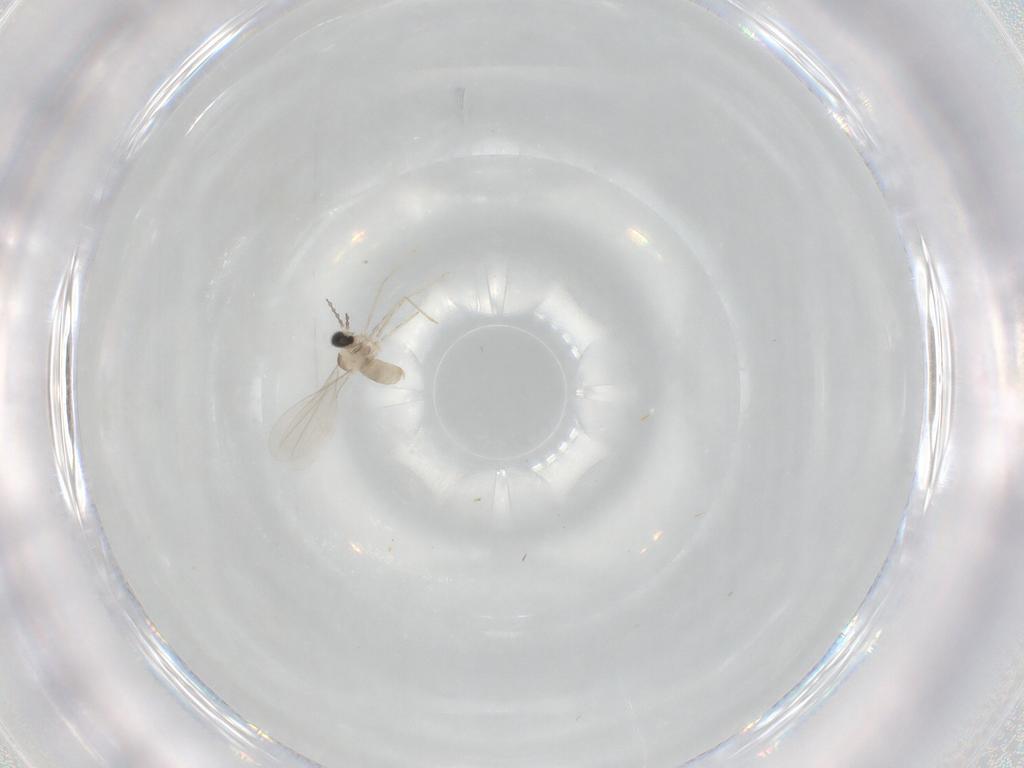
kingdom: Animalia
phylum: Arthropoda
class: Insecta
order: Diptera
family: Cecidomyiidae
